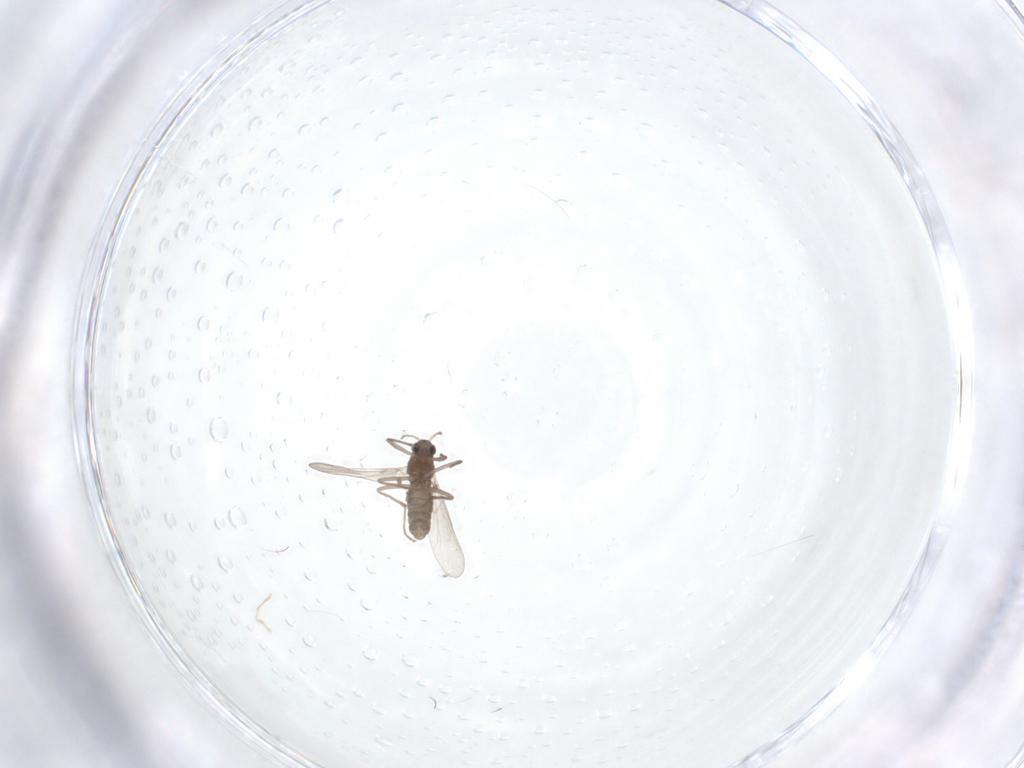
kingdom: Animalia
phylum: Arthropoda
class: Insecta
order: Diptera
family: Chironomidae
